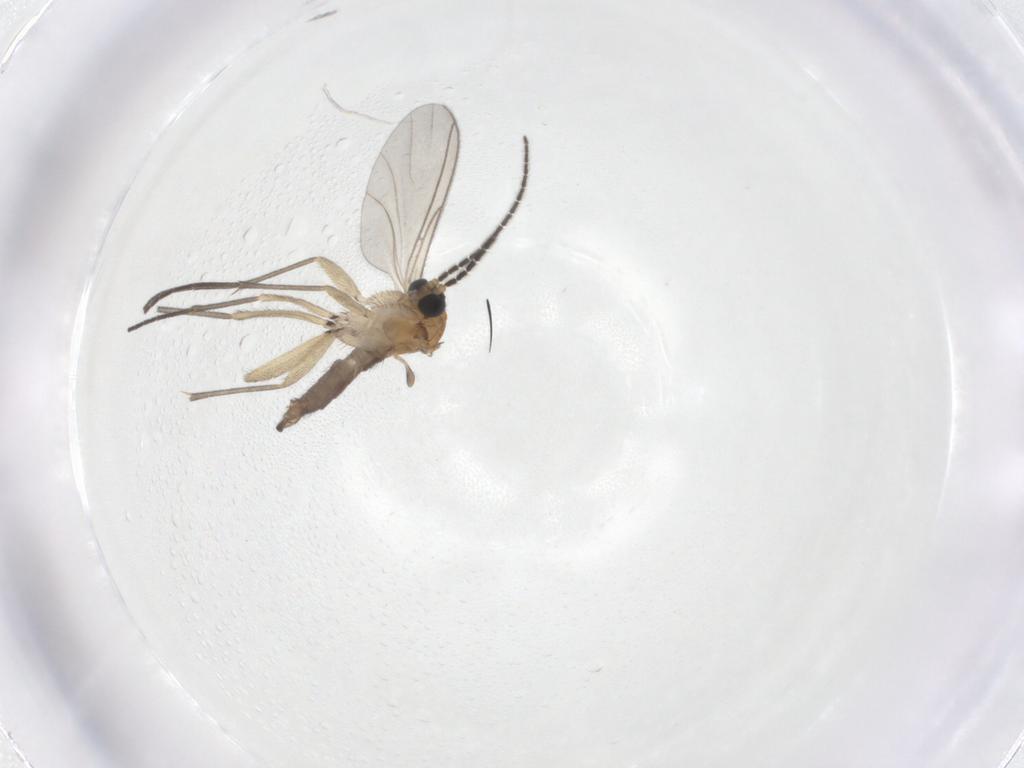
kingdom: Animalia
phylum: Arthropoda
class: Insecta
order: Diptera
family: Sciaridae
